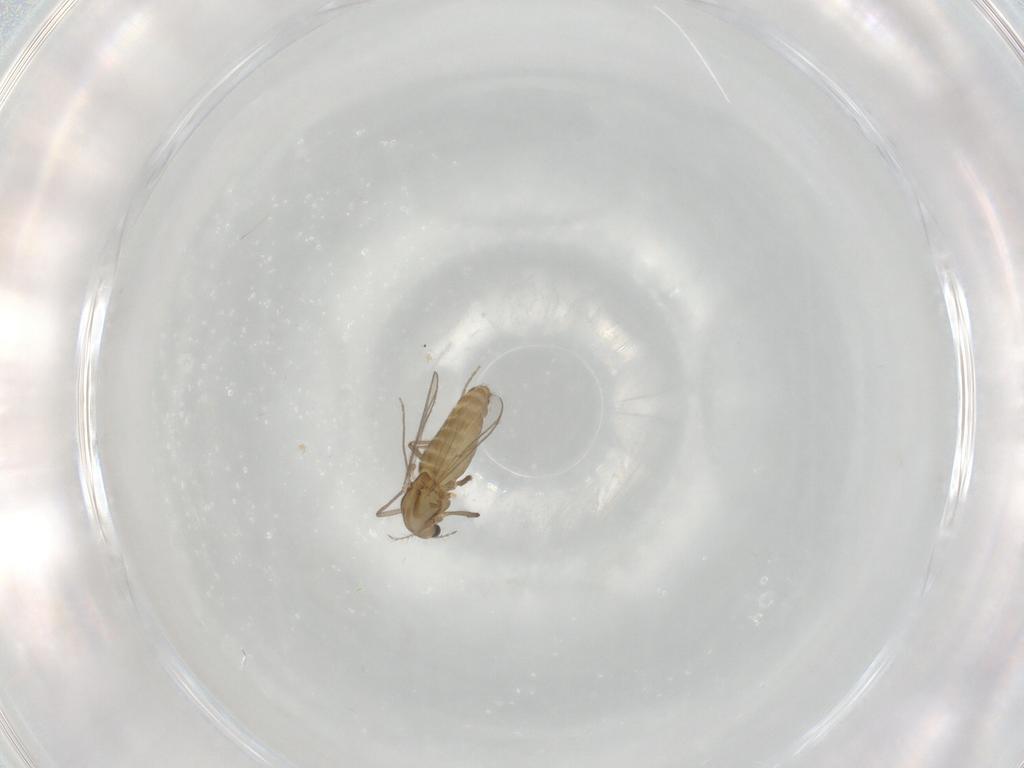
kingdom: Animalia
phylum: Arthropoda
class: Insecta
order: Diptera
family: Chironomidae
